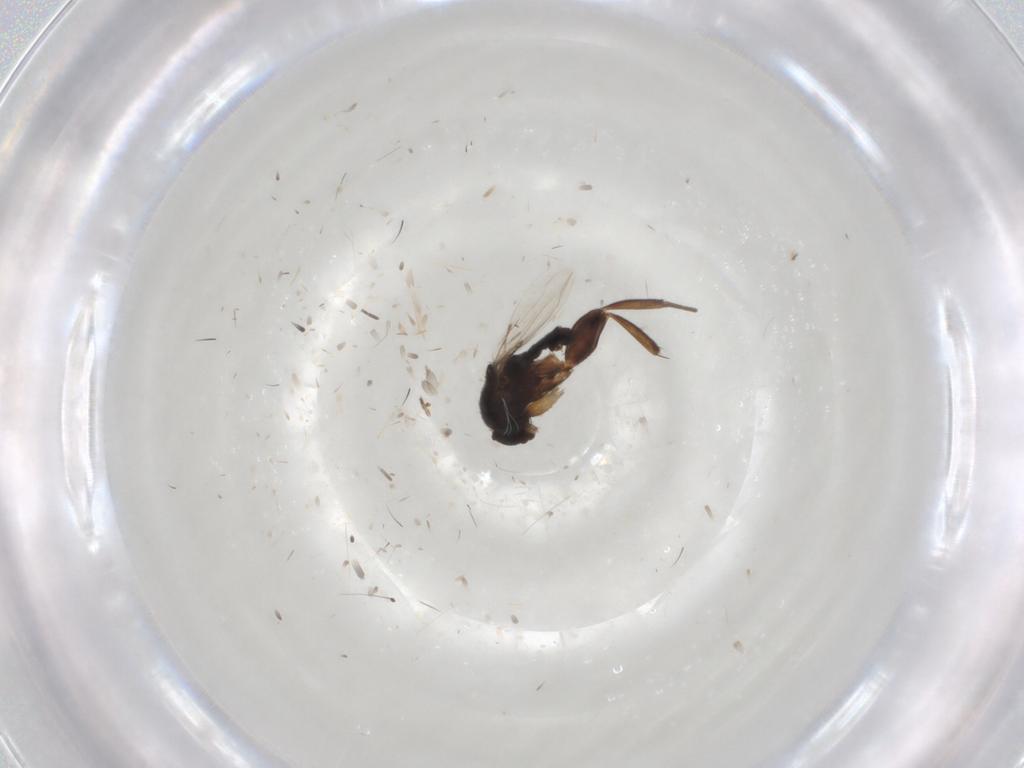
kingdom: Animalia
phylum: Arthropoda
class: Insecta
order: Diptera
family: Phoridae
